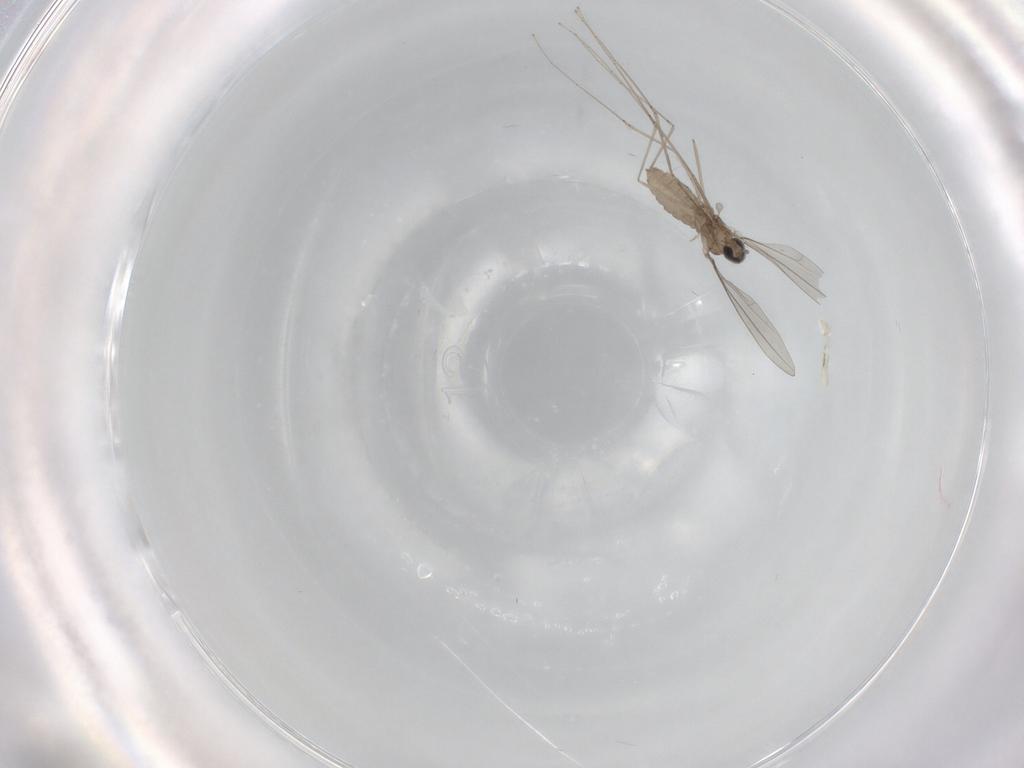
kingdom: Animalia
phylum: Arthropoda
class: Insecta
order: Diptera
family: Cecidomyiidae
